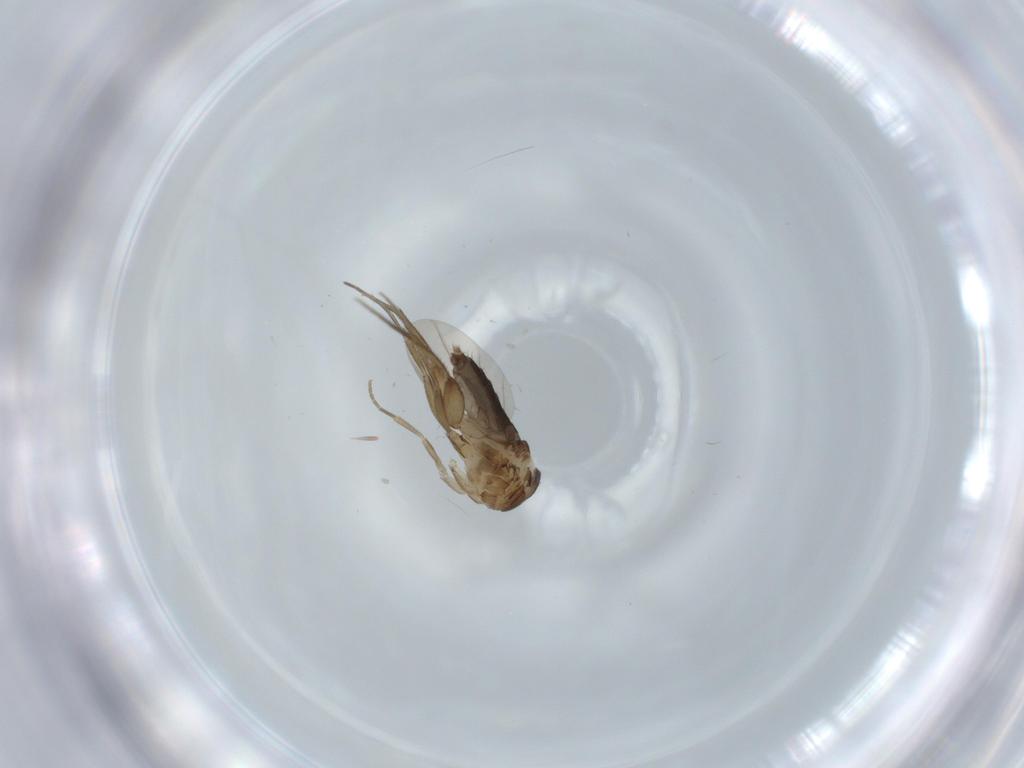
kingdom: Animalia
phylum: Arthropoda
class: Insecta
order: Diptera
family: Phoridae
